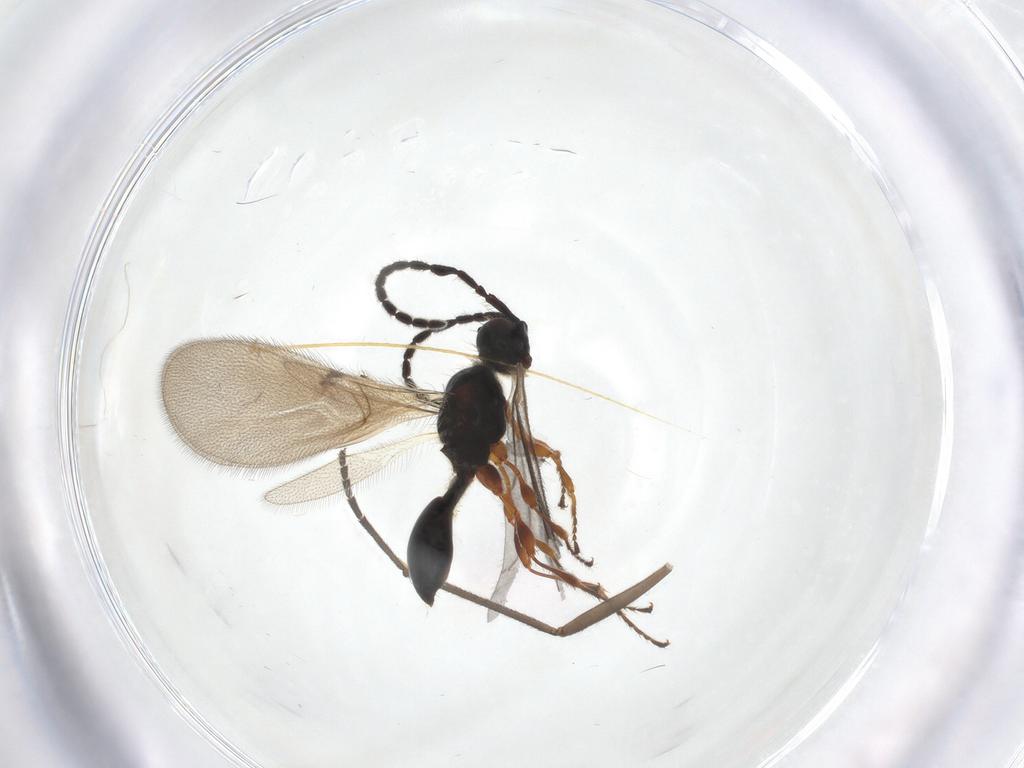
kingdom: Animalia
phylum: Arthropoda
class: Insecta
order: Hymenoptera
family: Diapriidae
